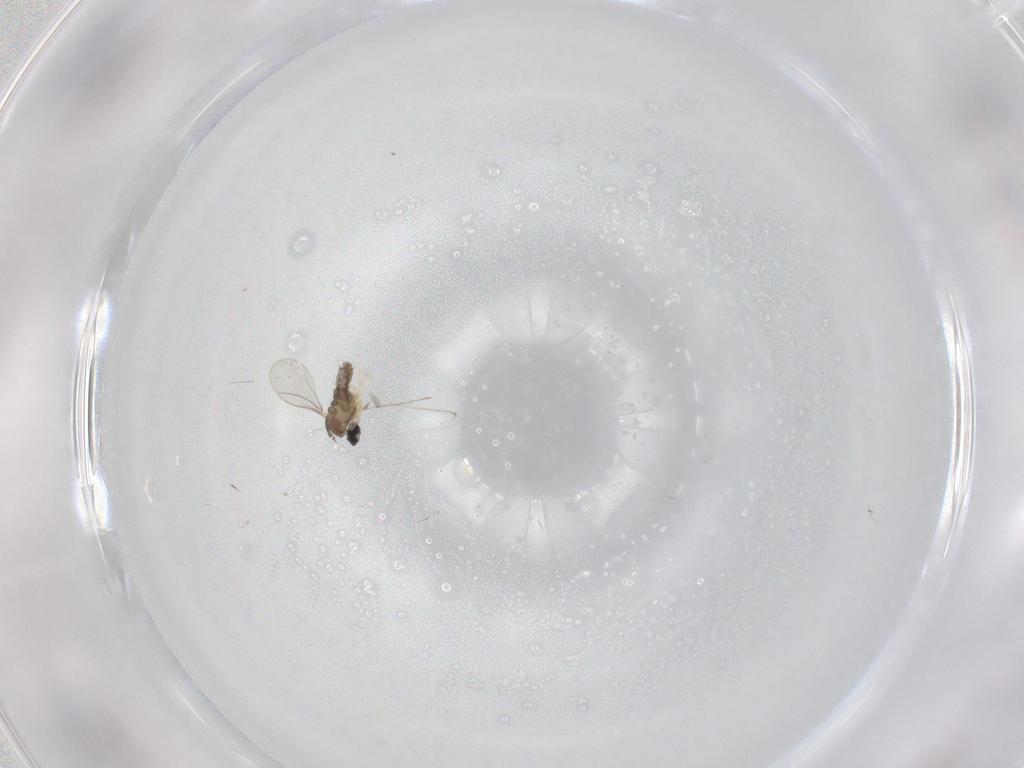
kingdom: Animalia
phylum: Arthropoda
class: Insecta
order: Diptera
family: Cecidomyiidae
